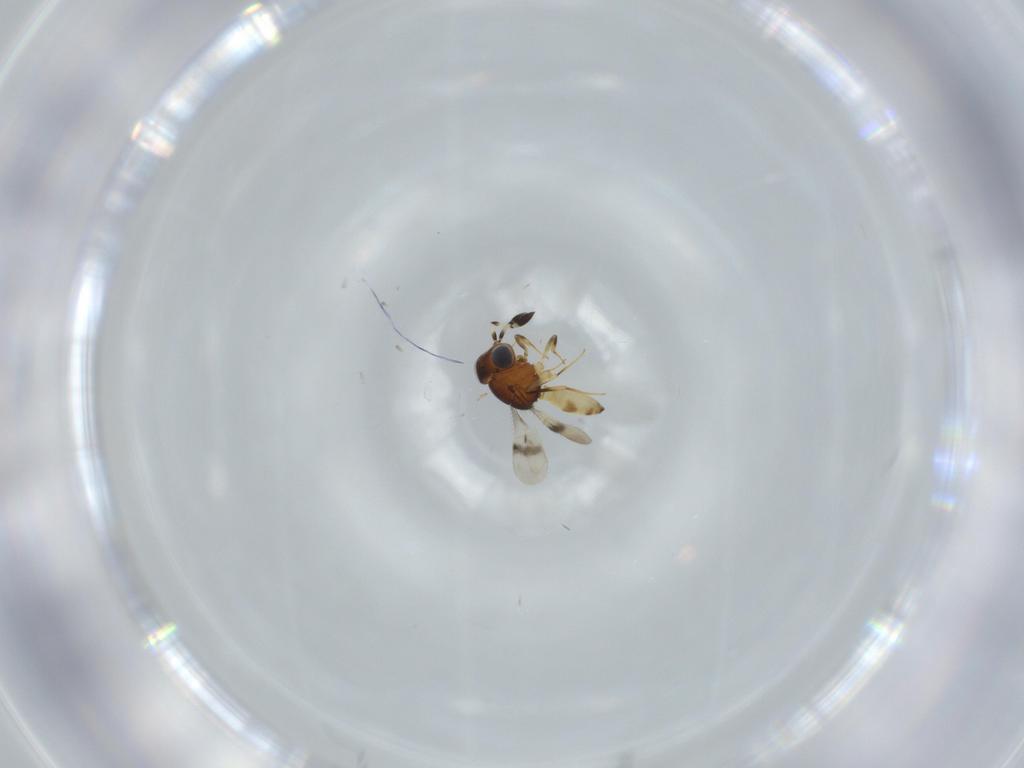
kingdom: Animalia
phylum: Arthropoda
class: Arachnida
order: Araneae
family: Pholcidae
